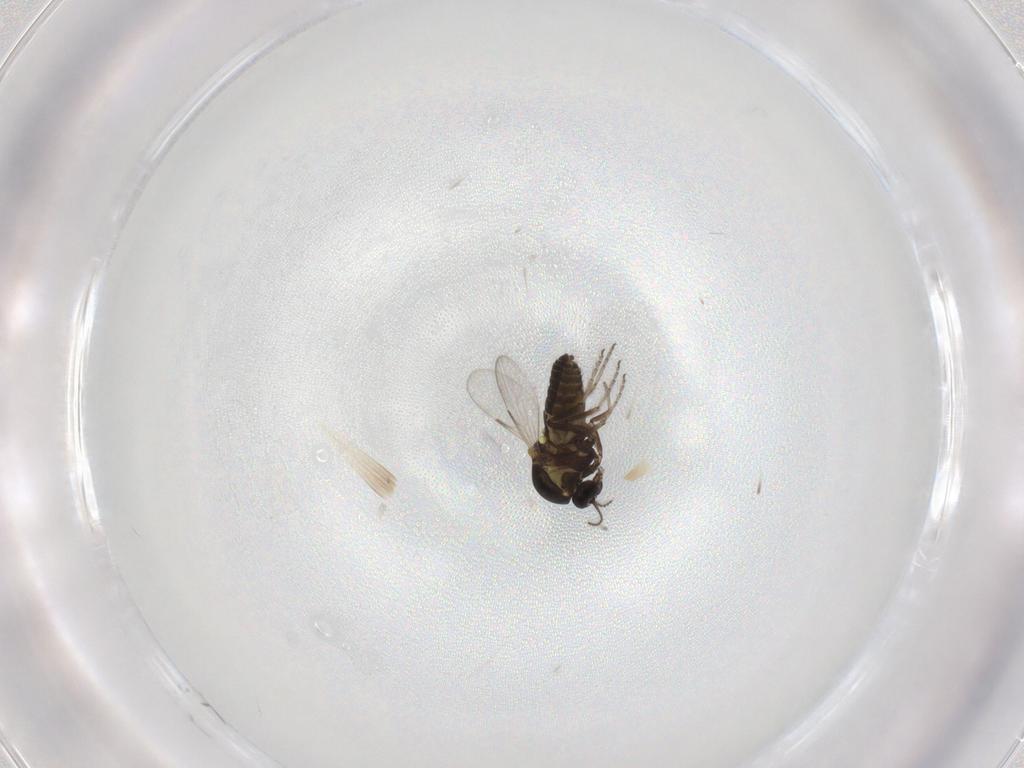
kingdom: Animalia
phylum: Arthropoda
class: Insecta
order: Diptera
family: Ceratopogonidae
